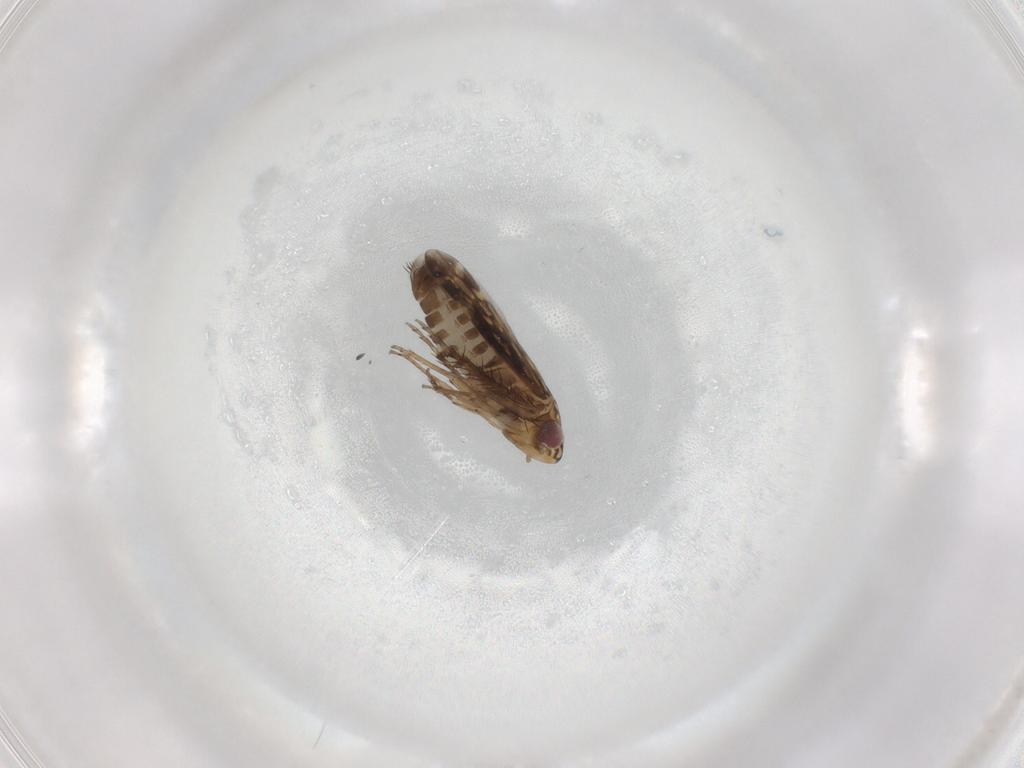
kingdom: Animalia
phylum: Arthropoda
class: Insecta
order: Hemiptera
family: Cicadellidae
